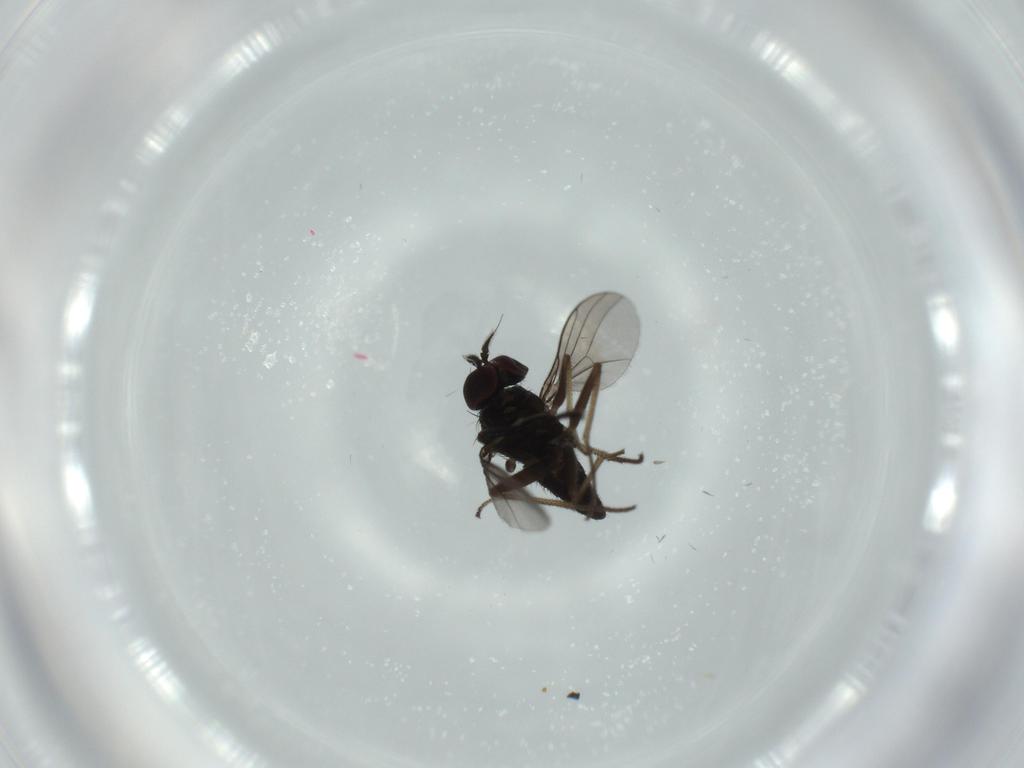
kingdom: Animalia
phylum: Arthropoda
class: Insecta
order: Diptera
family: Milichiidae
